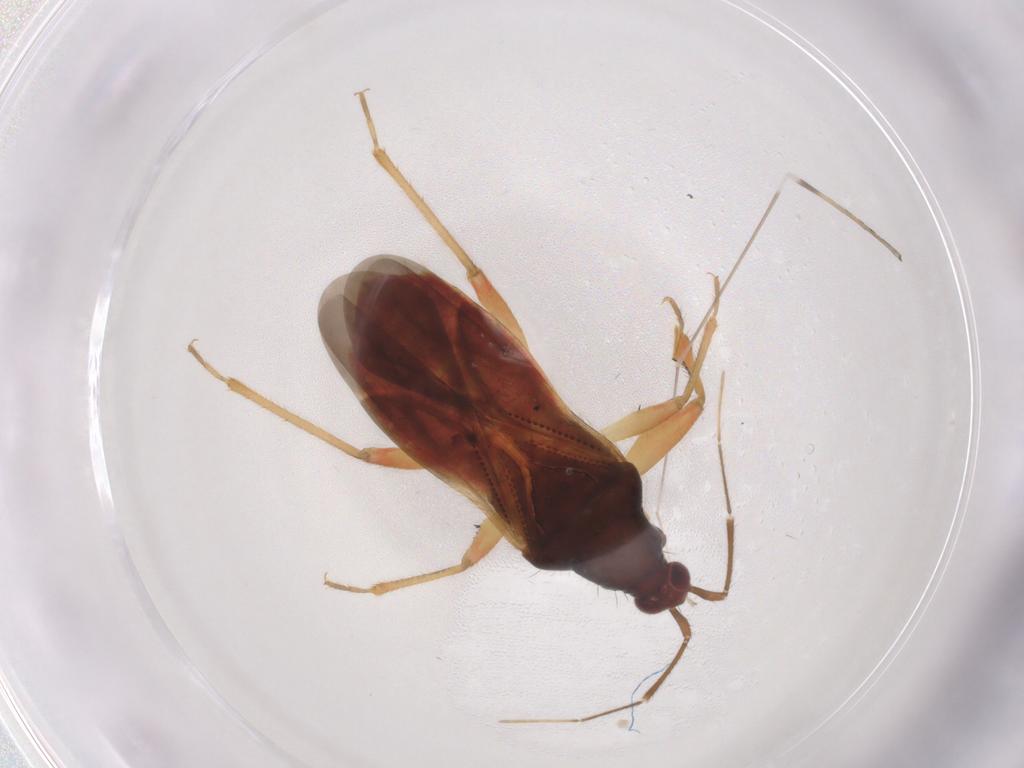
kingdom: Animalia
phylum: Arthropoda
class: Insecta
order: Hemiptera
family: Nabidae
